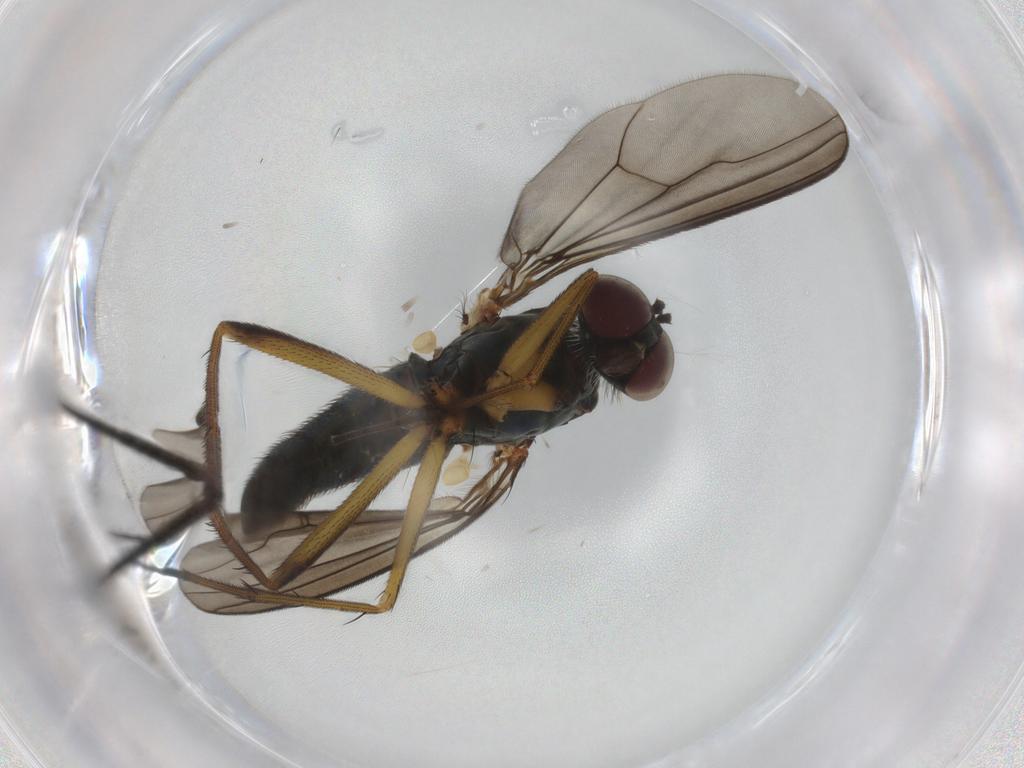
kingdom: Animalia
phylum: Arthropoda
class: Insecta
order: Diptera
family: Dolichopodidae
